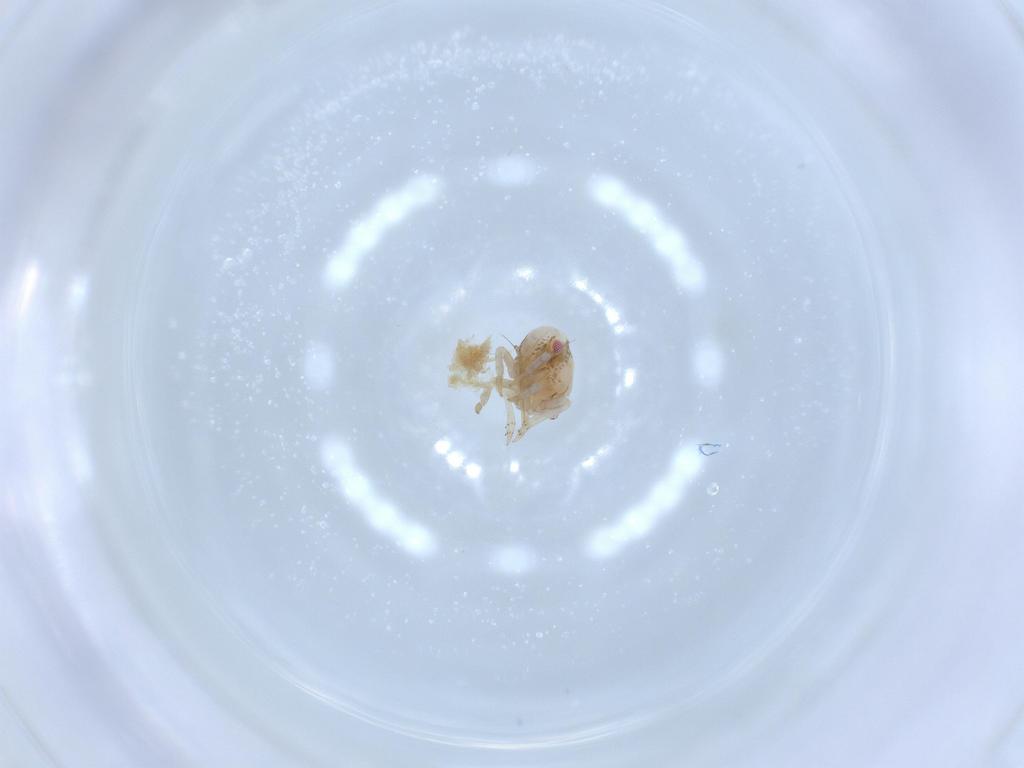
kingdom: Animalia
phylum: Arthropoda
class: Insecta
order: Hemiptera
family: Acanaloniidae
